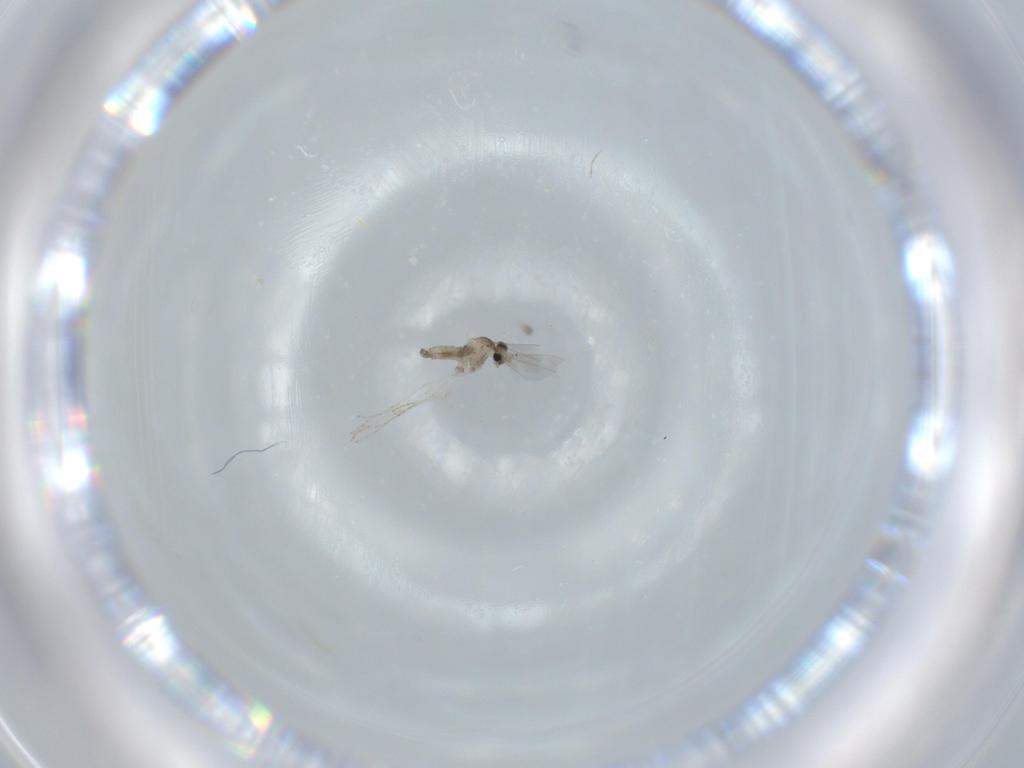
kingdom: Animalia
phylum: Arthropoda
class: Insecta
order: Diptera
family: Cecidomyiidae
